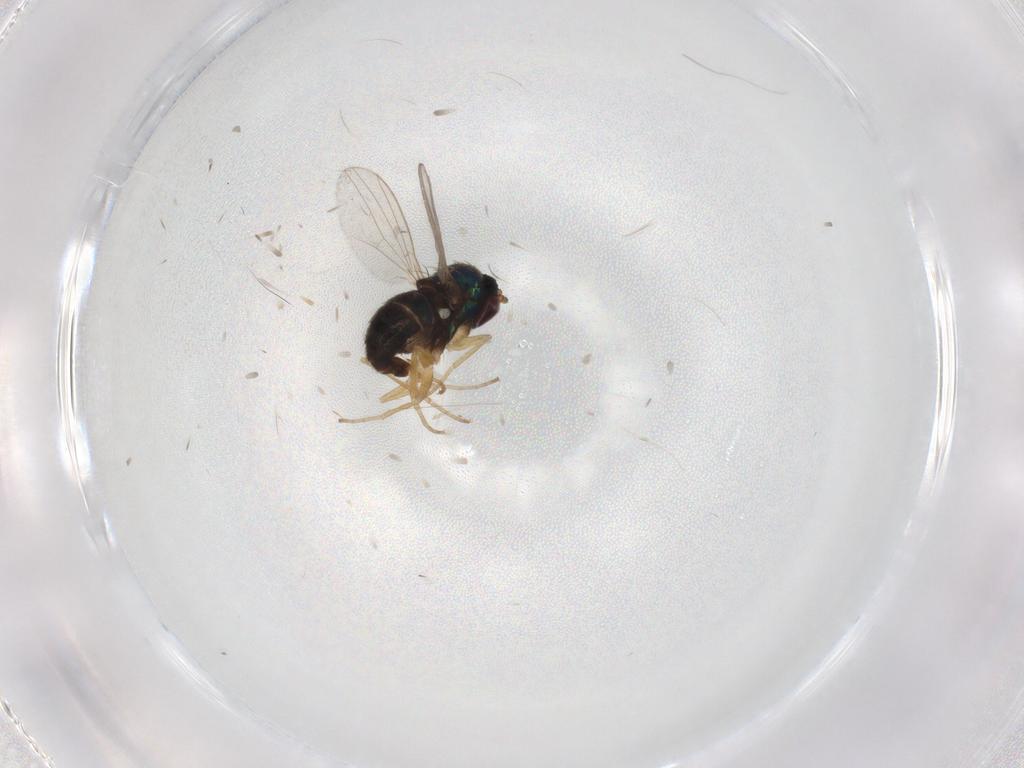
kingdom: Animalia
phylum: Arthropoda
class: Insecta
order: Diptera
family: Dolichopodidae
